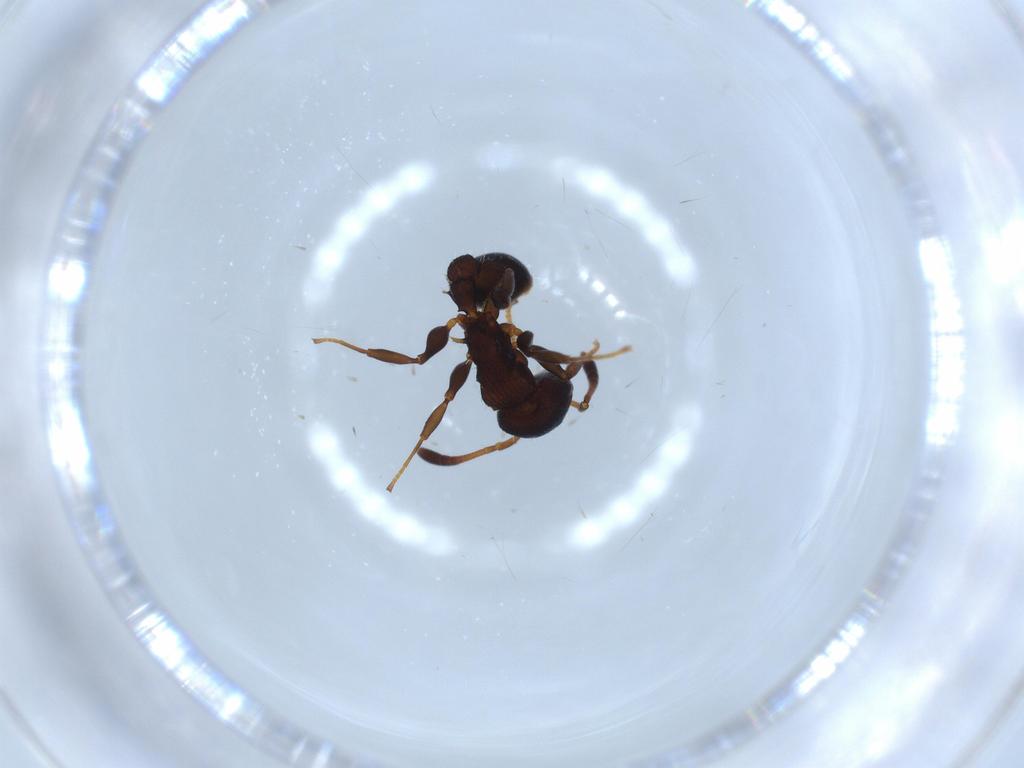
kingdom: Animalia
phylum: Arthropoda
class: Insecta
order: Hymenoptera
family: Formicidae
